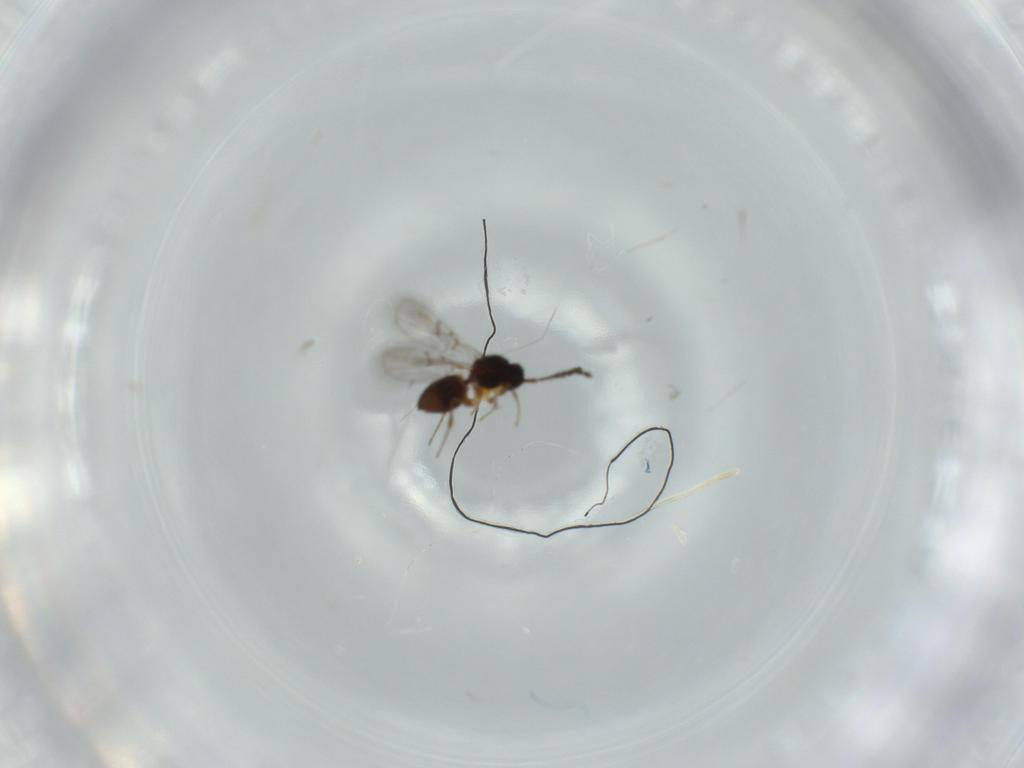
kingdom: Animalia
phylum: Arthropoda
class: Insecta
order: Hymenoptera
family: Figitidae
